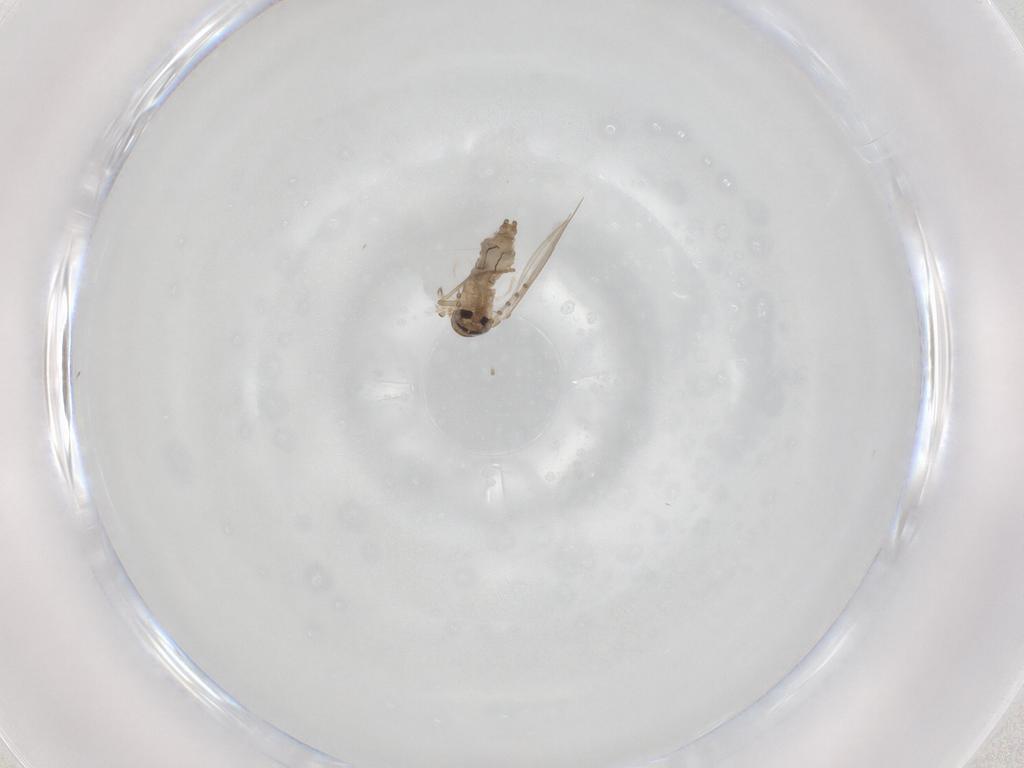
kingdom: Animalia
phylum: Arthropoda
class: Insecta
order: Diptera
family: Psychodidae
